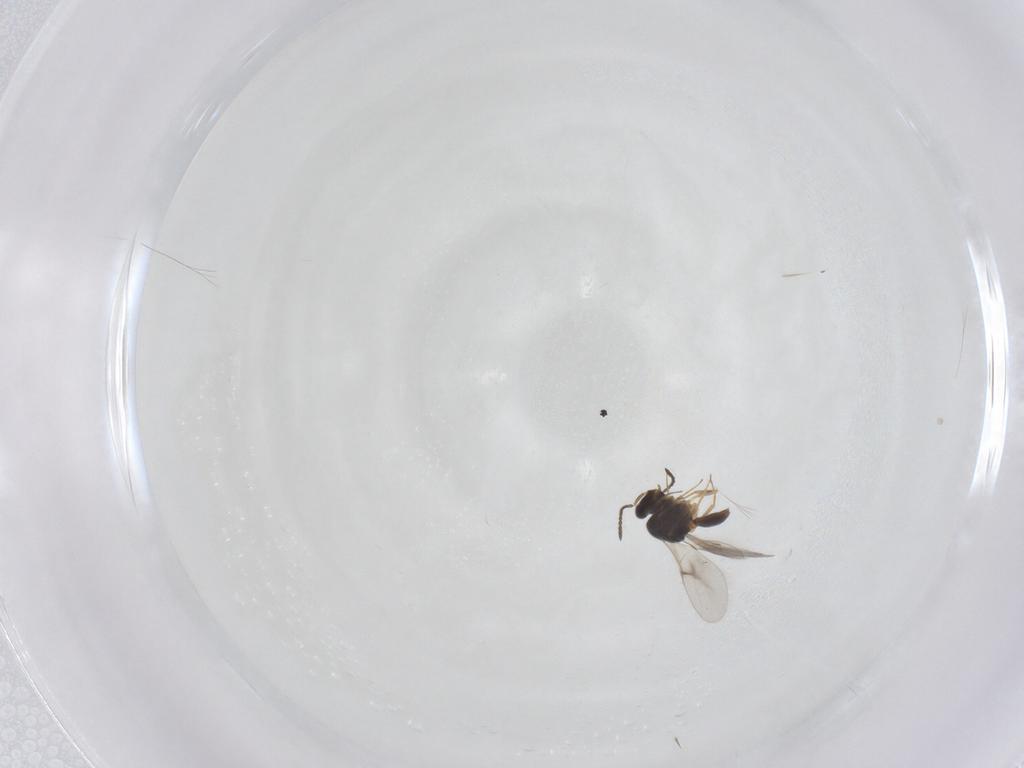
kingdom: Animalia
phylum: Arthropoda
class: Insecta
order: Hymenoptera
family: Scelionidae
